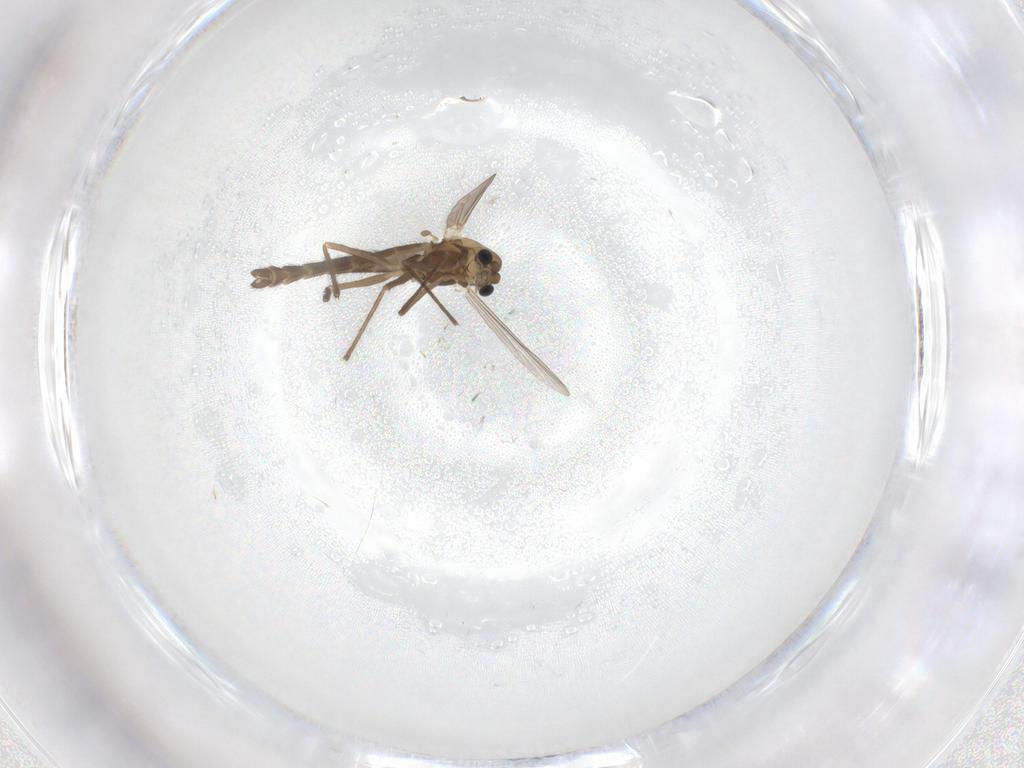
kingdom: Animalia
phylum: Arthropoda
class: Insecta
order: Diptera
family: Chironomidae
